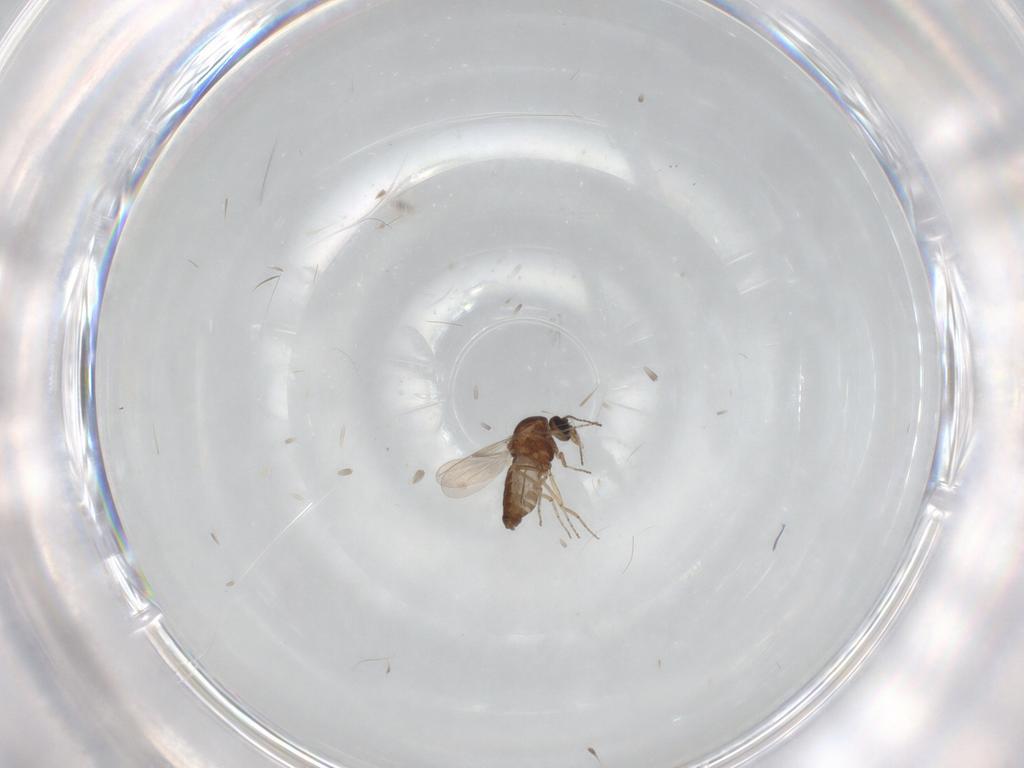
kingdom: Animalia
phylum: Arthropoda
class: Insecta
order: Diptera
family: Ceratopogonidae
